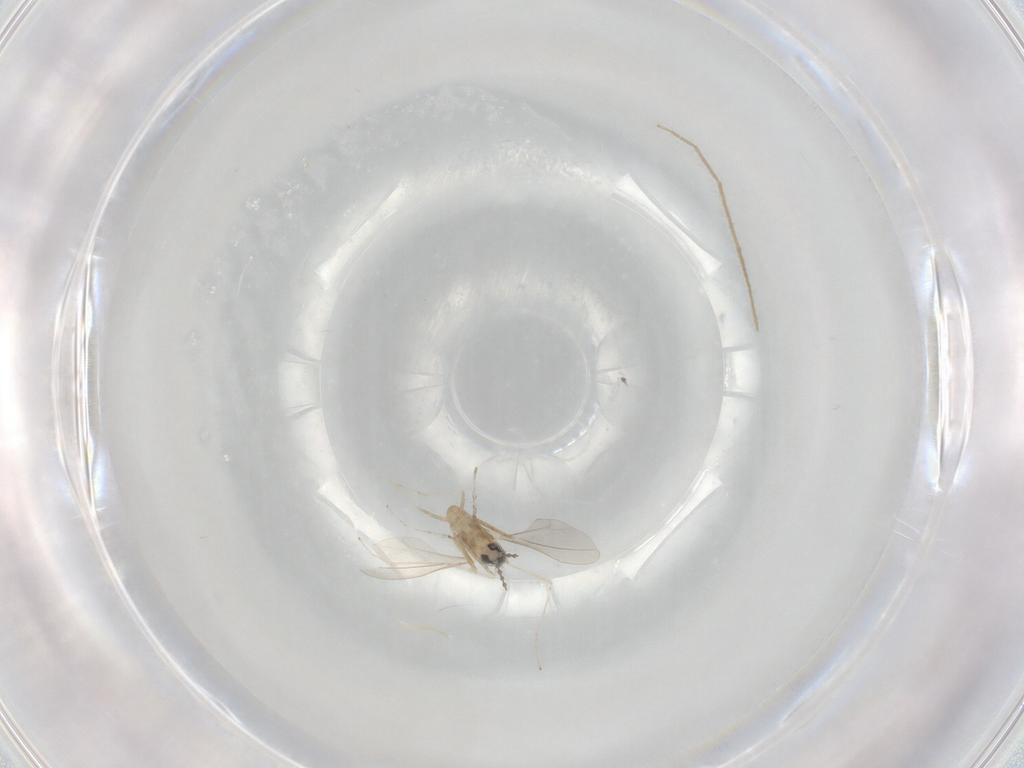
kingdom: Animalia
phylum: Arthropoda
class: Insecta
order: Diptera
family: Cecidomyiidae
